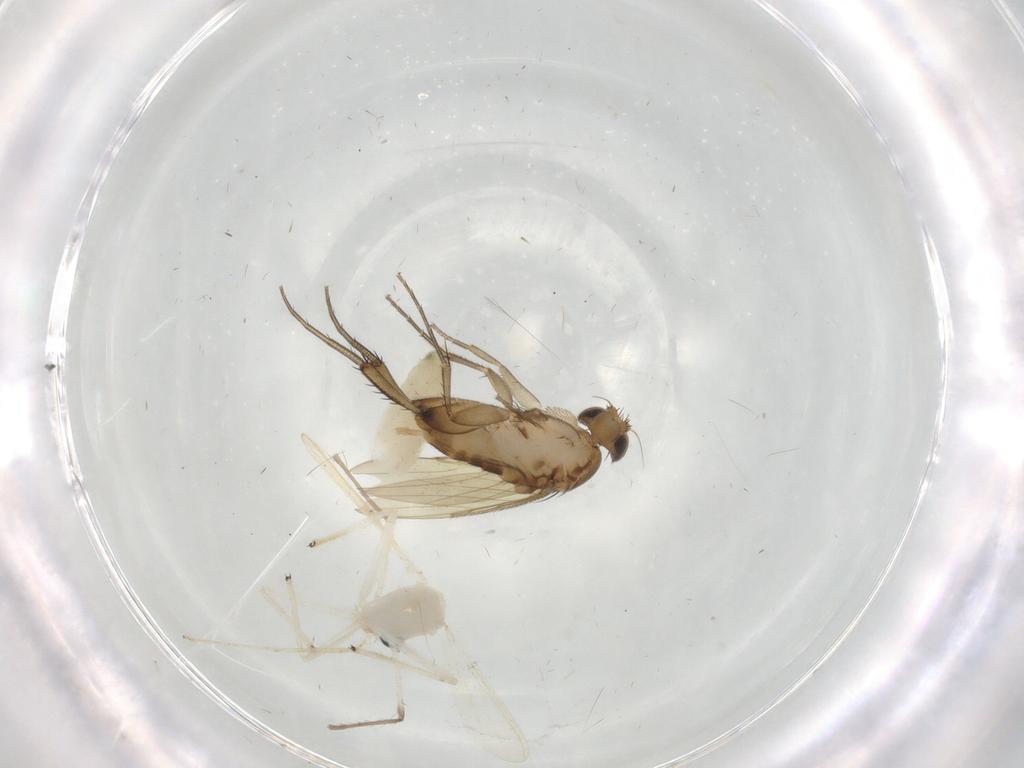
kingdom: Animalia
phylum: Arthropoda
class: Insecta
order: Diptera
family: Chironomidae
